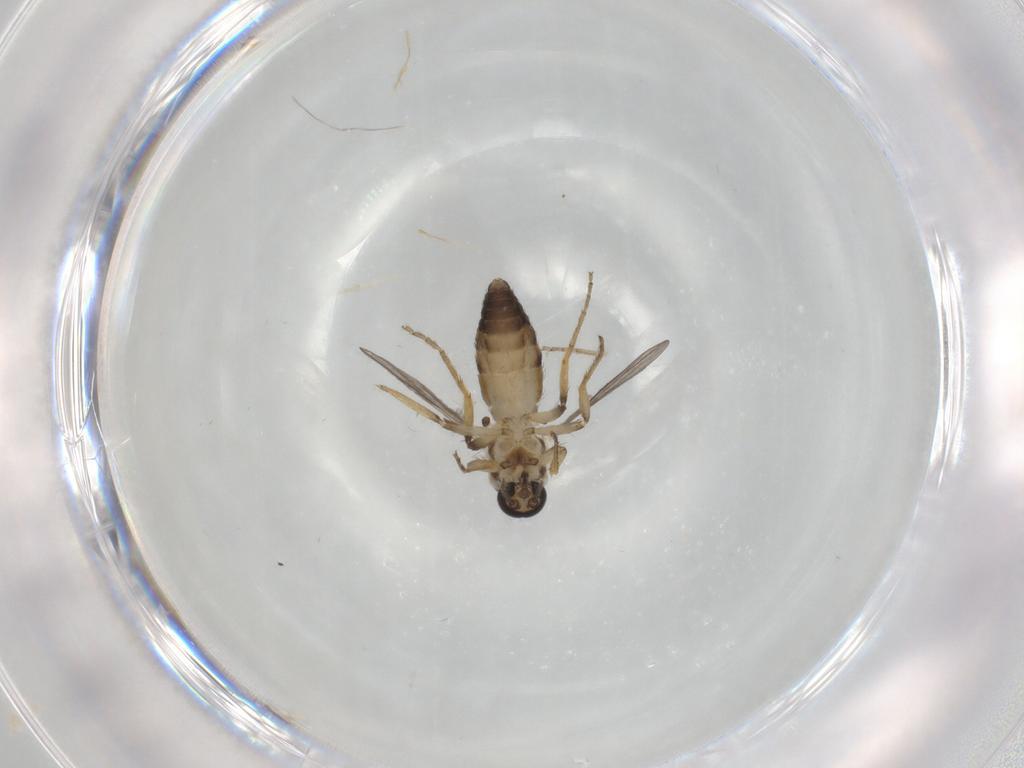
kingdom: Animalia
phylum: Arthropoda
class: Insecta
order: Diptera
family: Ceratopogonidae
